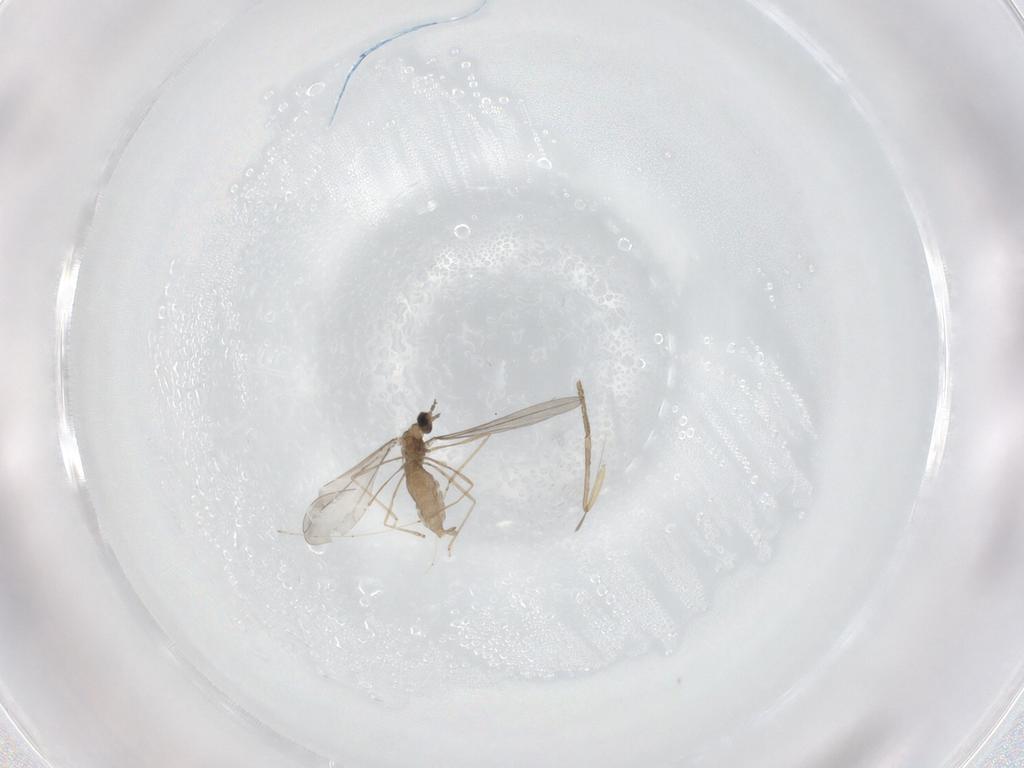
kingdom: Animalia
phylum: Arthropoda
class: Insecta
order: Diptera
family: Cecidomyiidae
